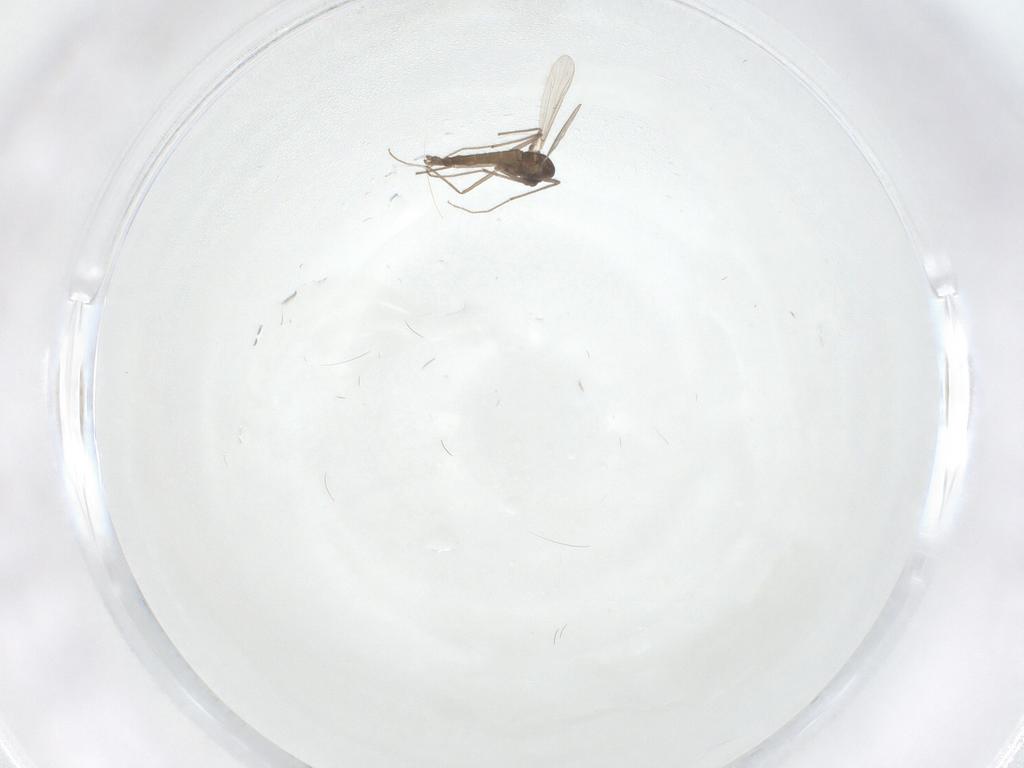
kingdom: Animalia
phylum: Arthropoda
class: Insecta
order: Diptera
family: Chironomidae
